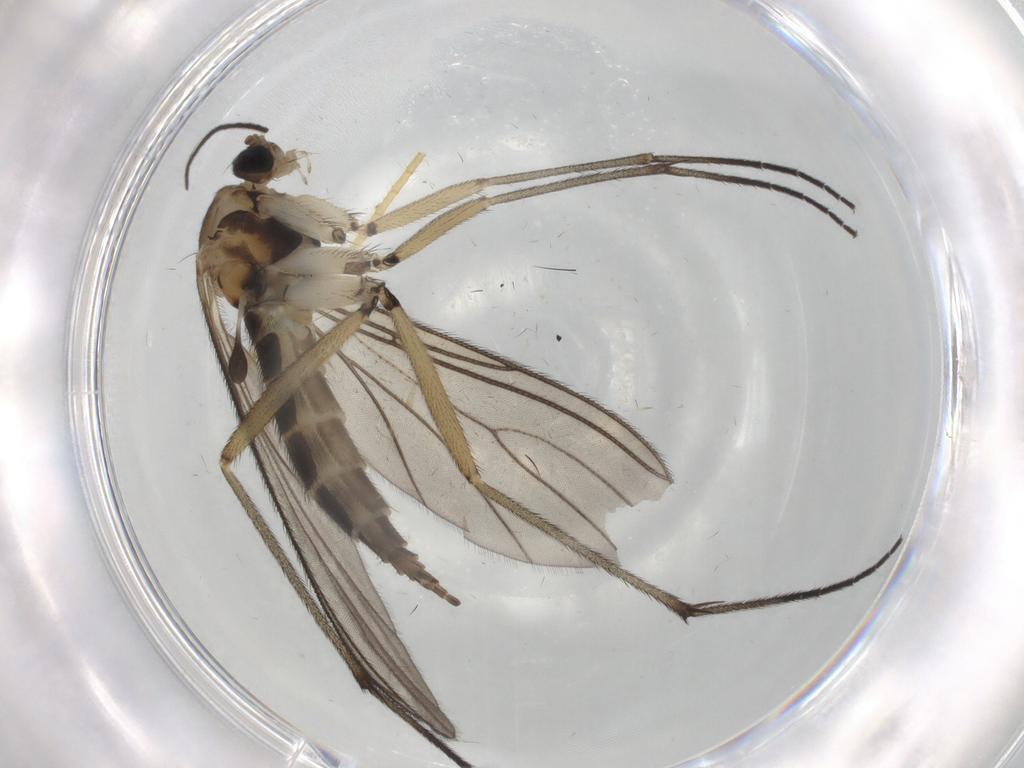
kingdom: Animalia
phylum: Arthropoda
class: Insecta
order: Diptera
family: Sciaridae
